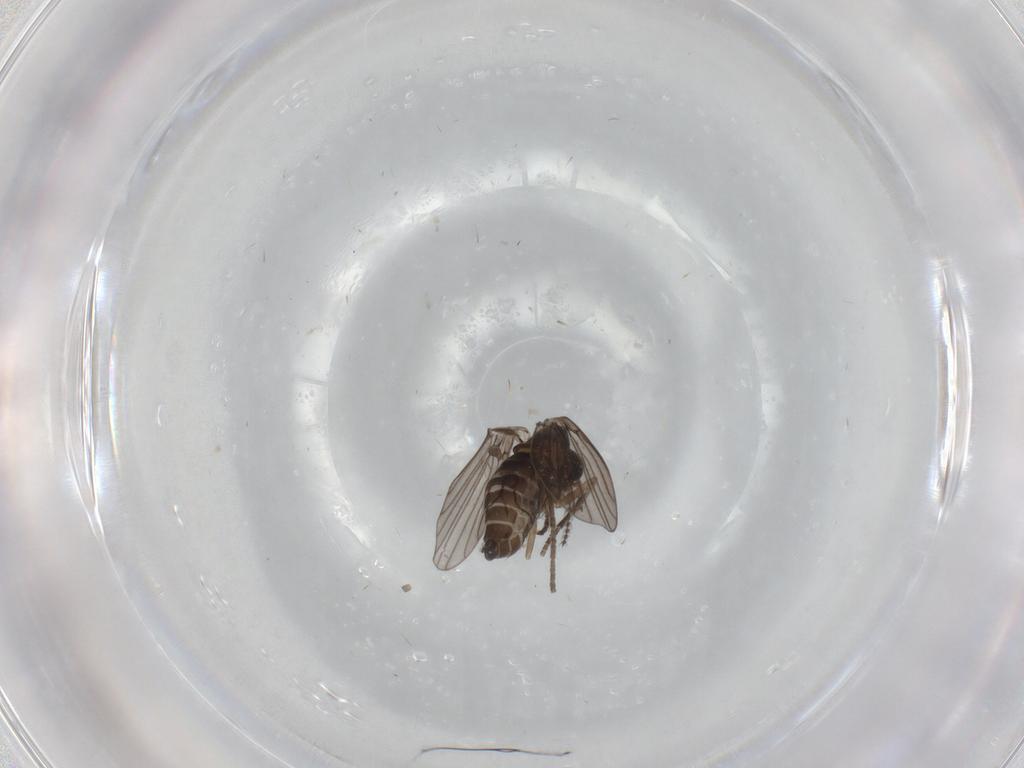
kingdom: Animalia
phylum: Arthropoda
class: Insecta
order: Diptera
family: Chironomidae
